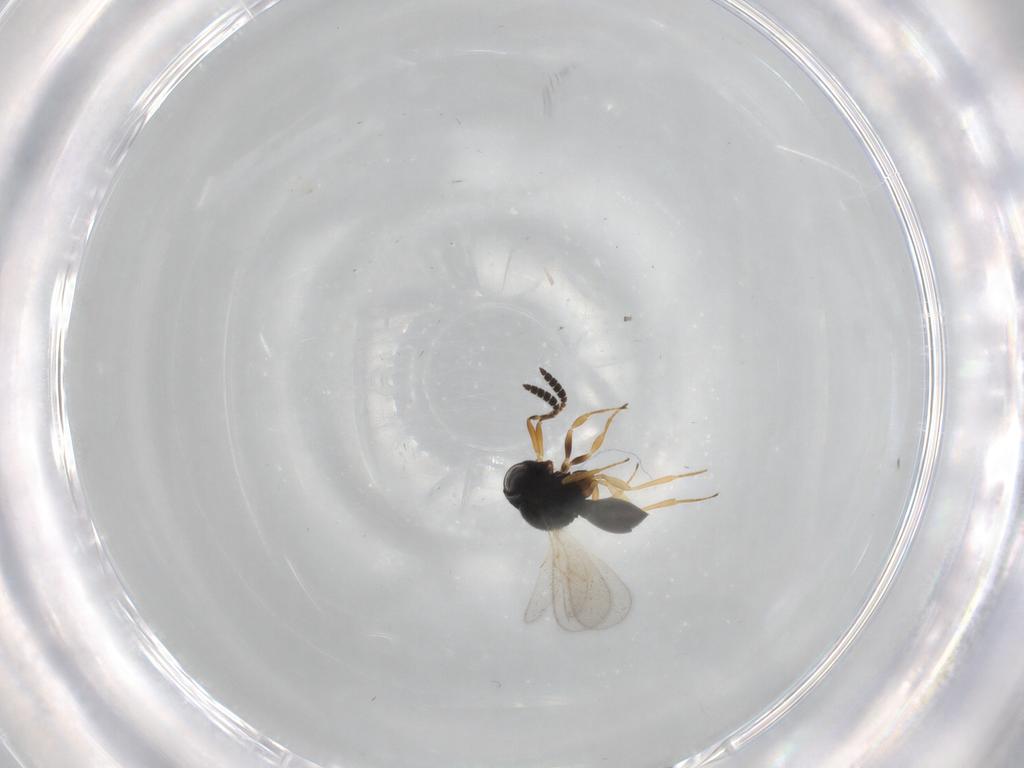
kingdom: Animalia
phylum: Arthropoda
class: Insecta
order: Hymenoptera
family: Scelionidae
